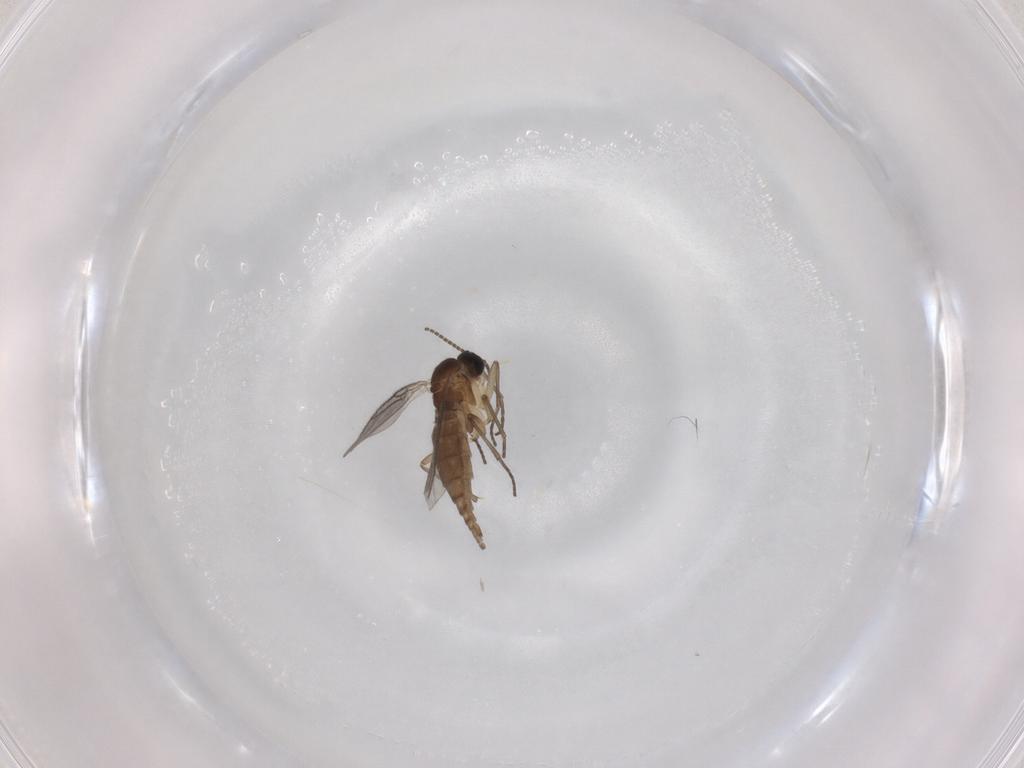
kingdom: Animalia
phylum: Arthropoda
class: Insecta
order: Diptera
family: Sciaridae
